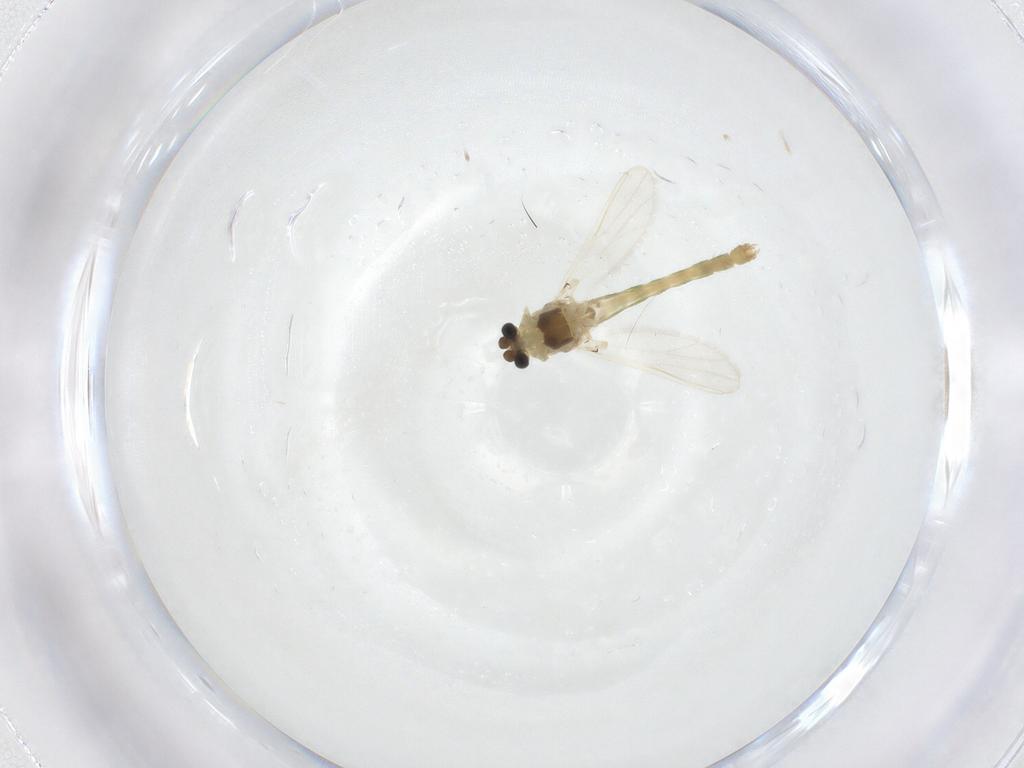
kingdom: Animalia
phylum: Arthropoda
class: Insecta
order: Diptera
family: Chironomidae
